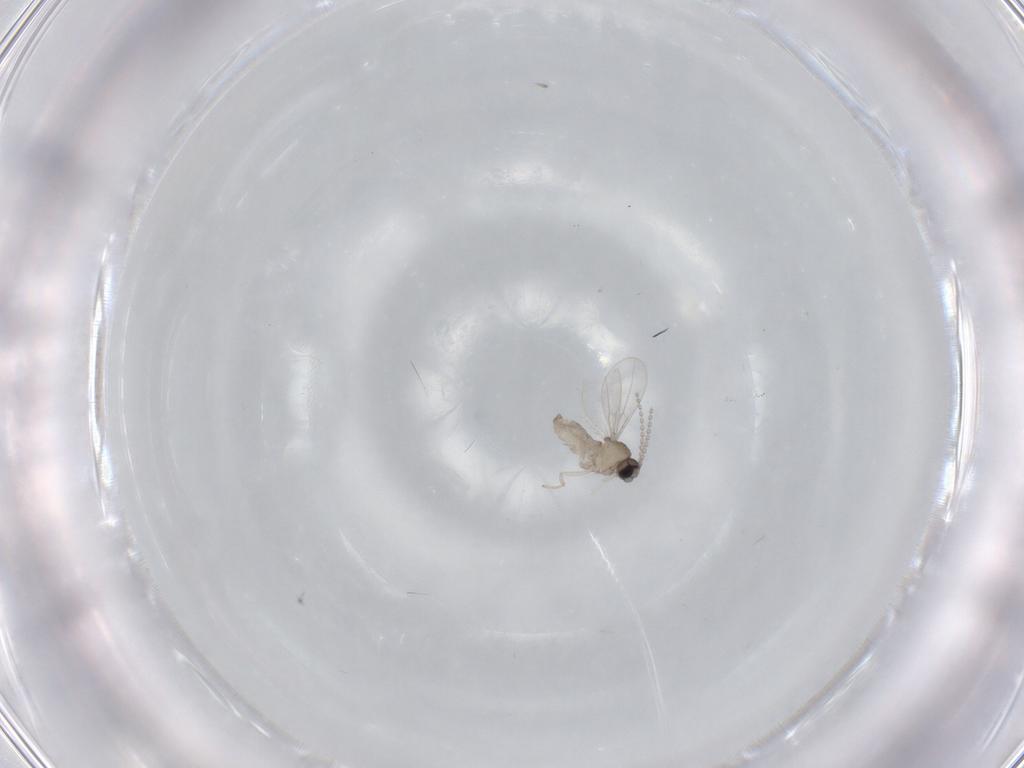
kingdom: Animalia
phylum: Arthropoda
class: Insecta
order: Diptera
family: Cecidomyiidae
